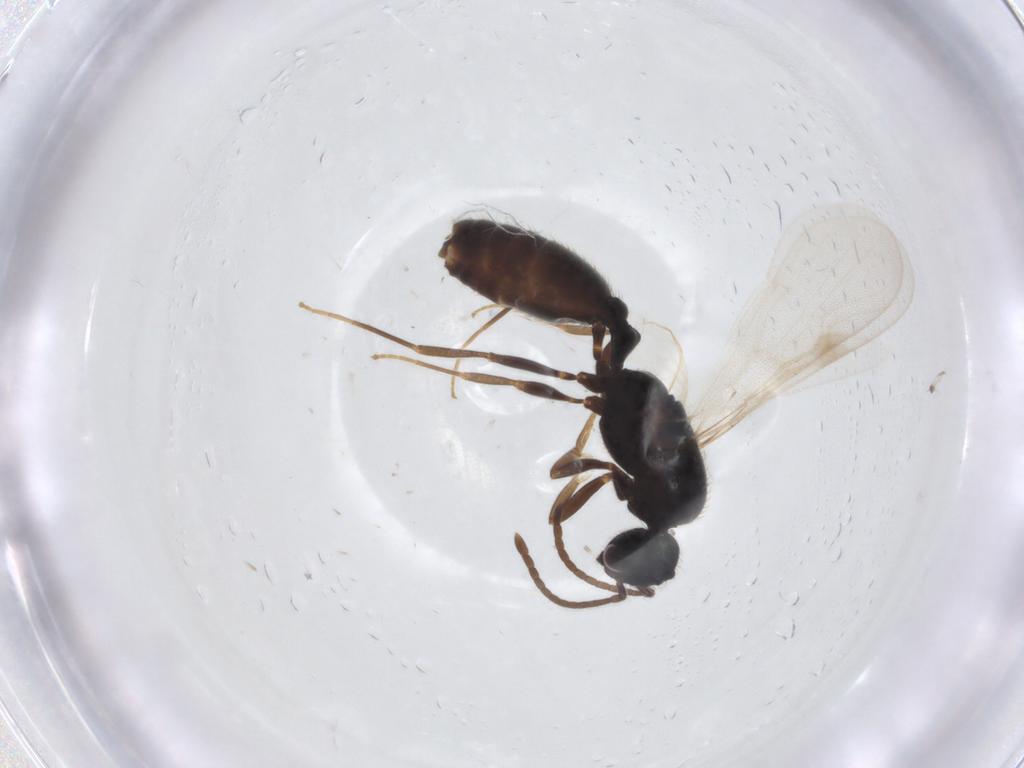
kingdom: Animalia
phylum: Arthropoda
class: Insecta
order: Hymenoptera
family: Formicidae
